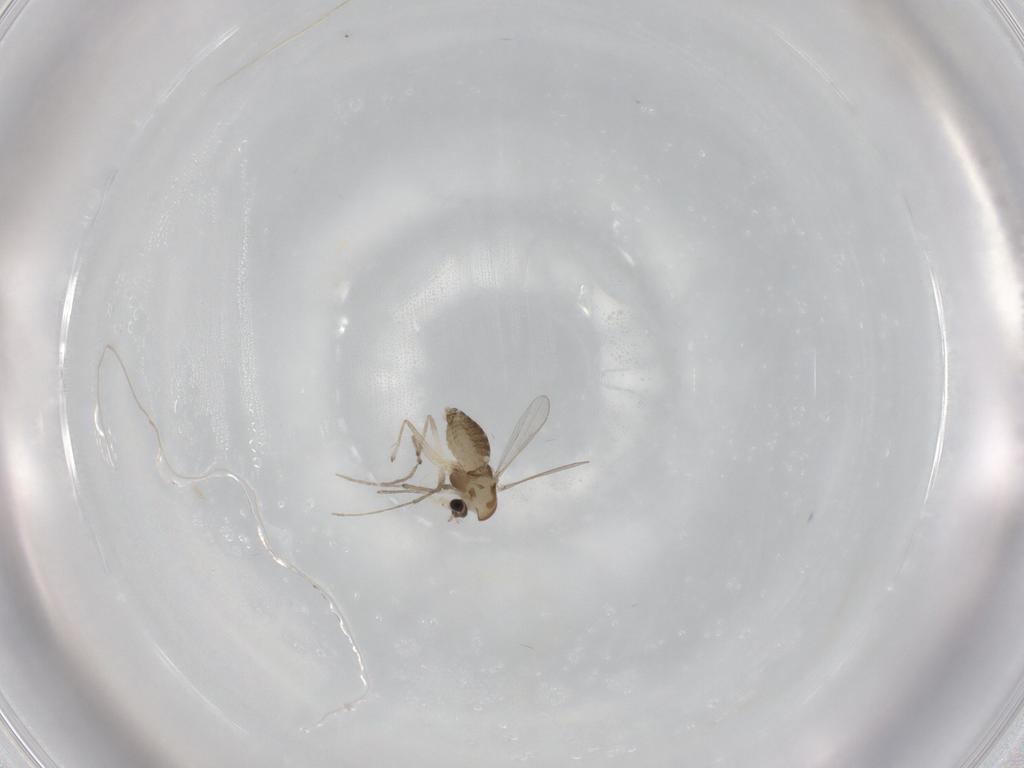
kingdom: Animalia
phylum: Arthropoda
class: Insecta
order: Diptera
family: Chironomidae
